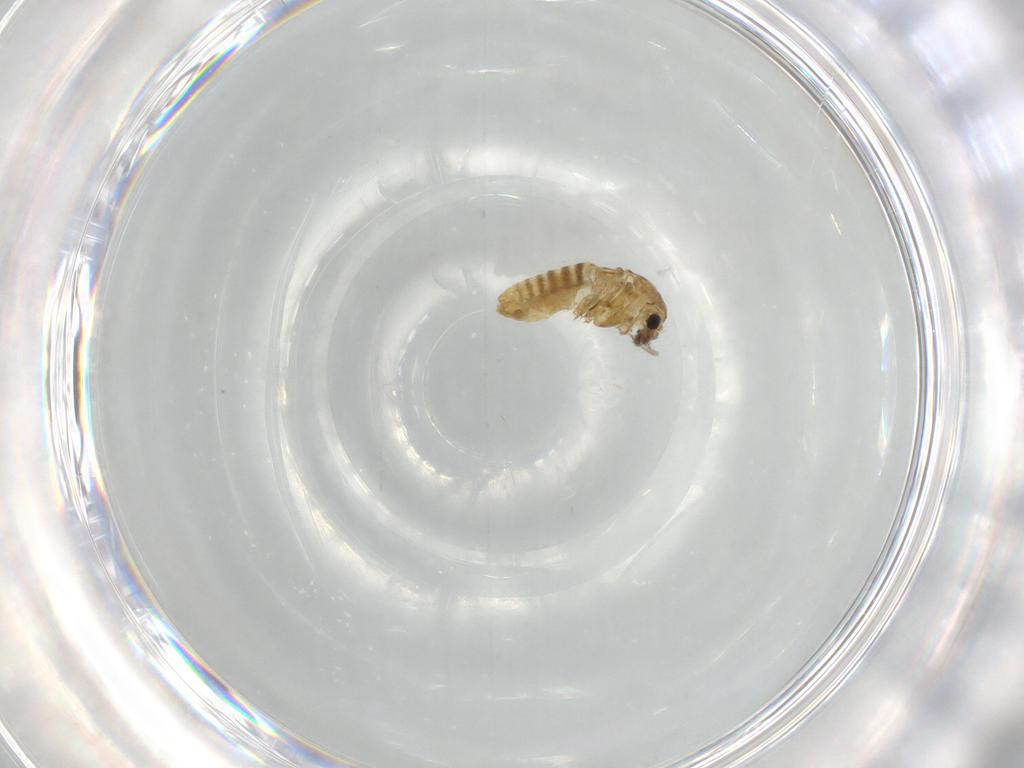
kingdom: Animalia
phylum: Arthropoda
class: Insecta
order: Diptera
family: Chironomidae
